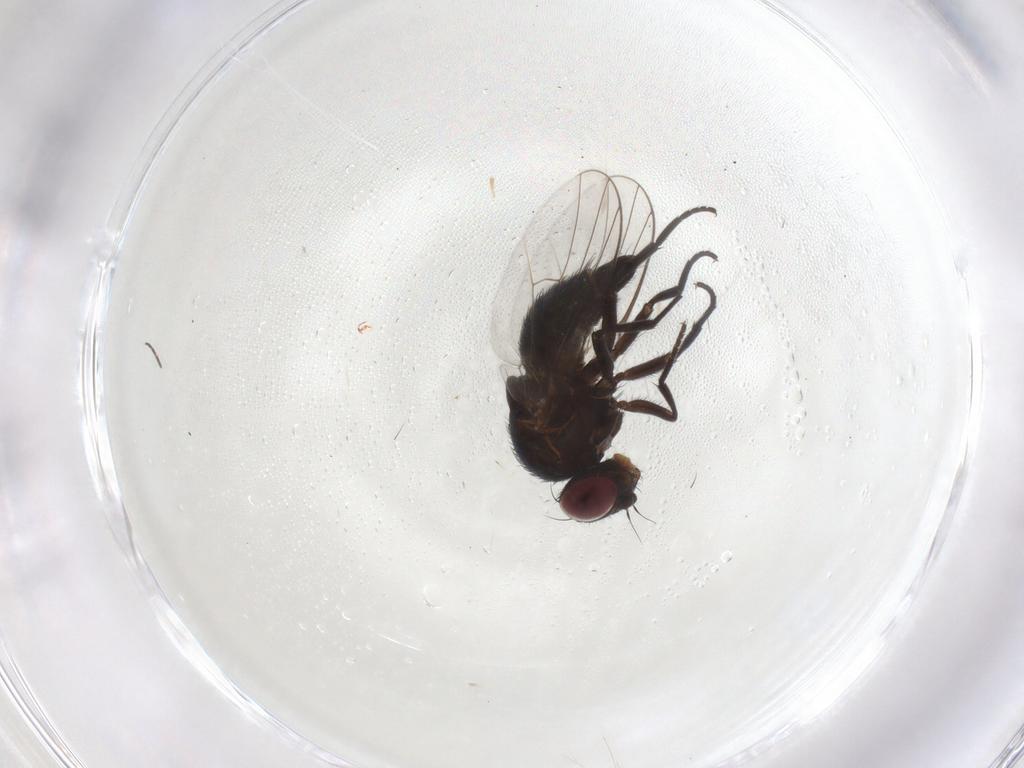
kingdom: Animalia
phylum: Arthropoda
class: Insecta
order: Diptera
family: Agromyzidae
